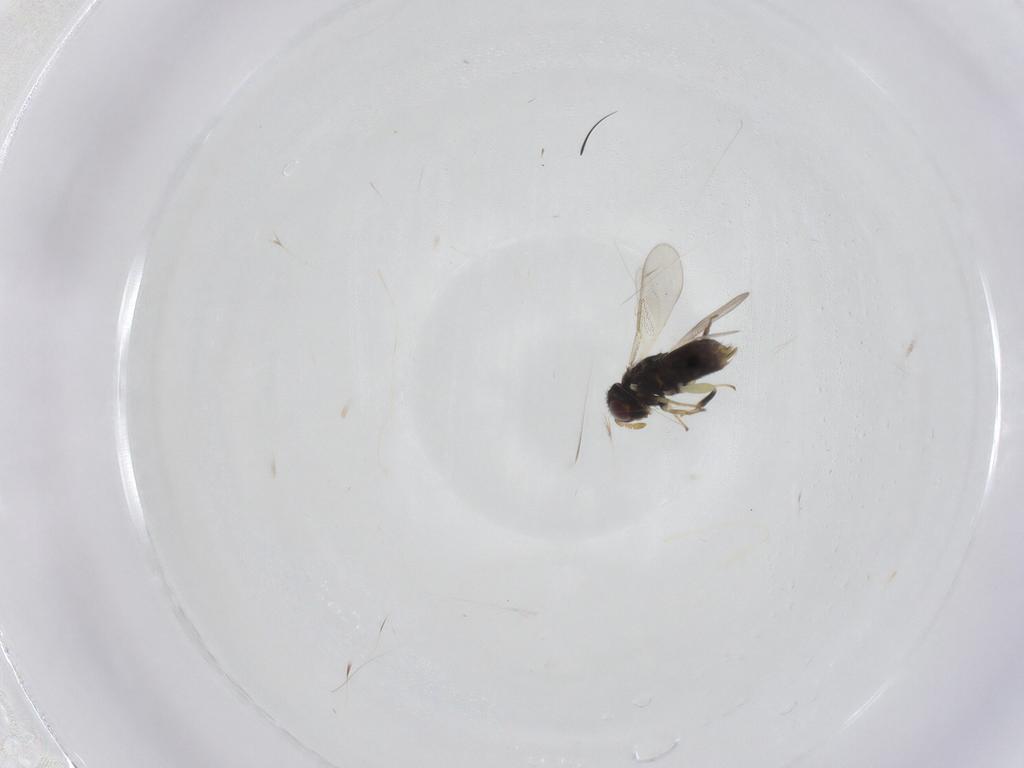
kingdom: Animalia
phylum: Arthropoda
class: Insecta
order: Hymenoptera
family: Aphelinidae
